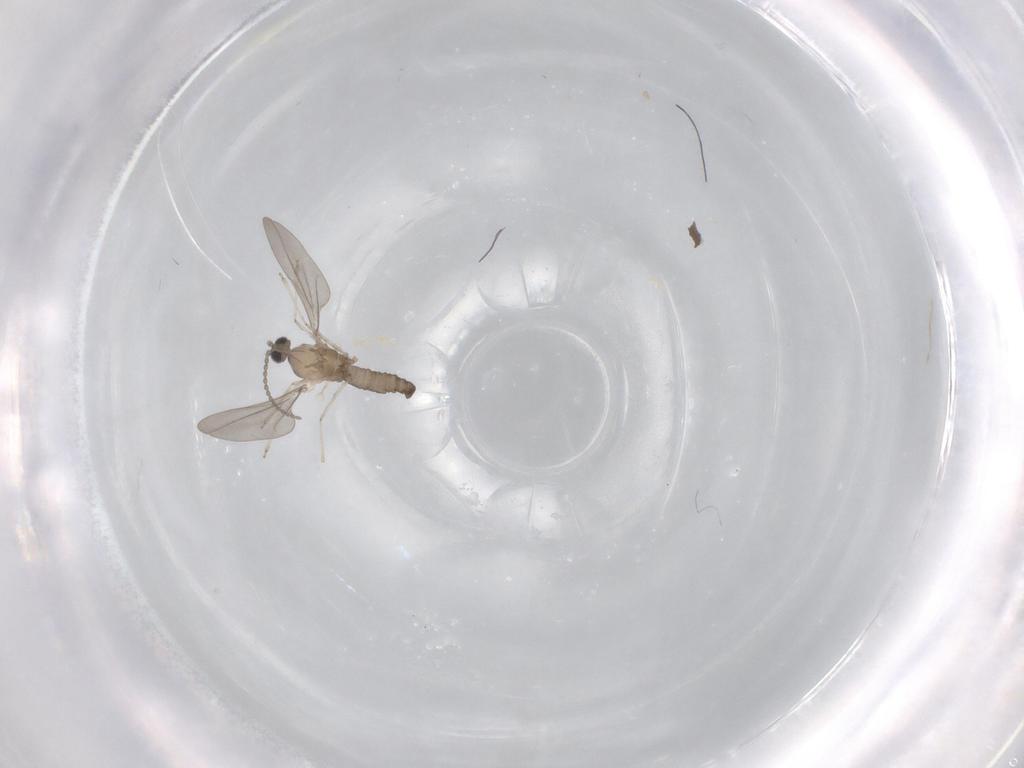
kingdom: Animalia
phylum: Arthropoda
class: Insecta
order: Diptera
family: Cecidomyiidae
